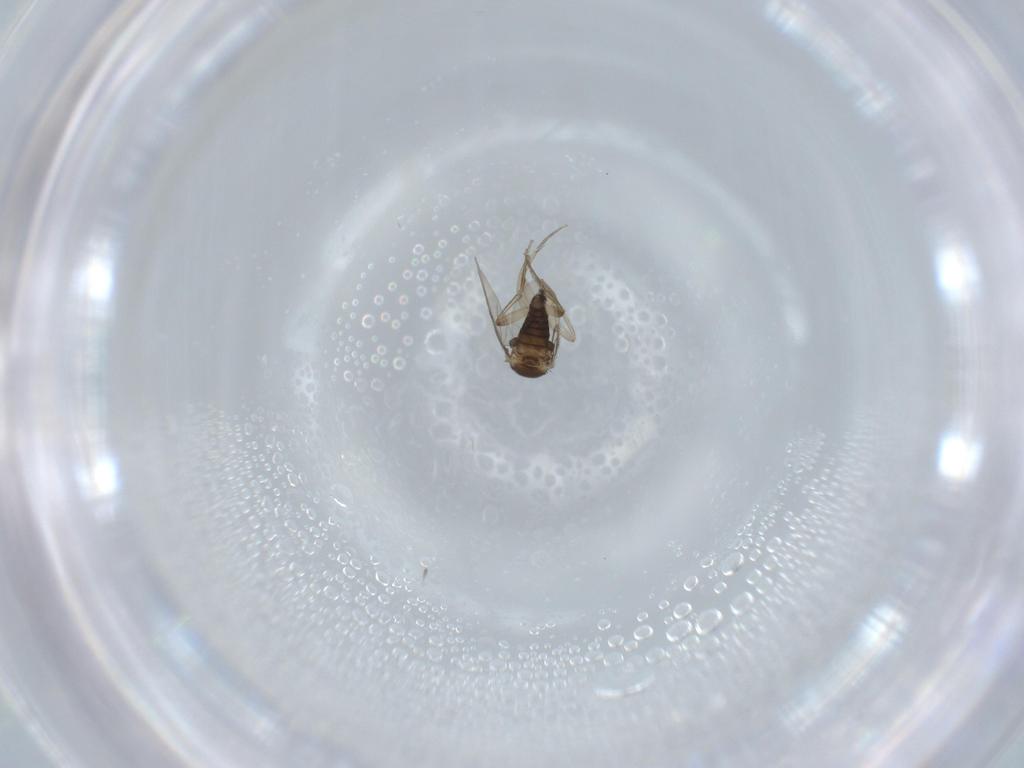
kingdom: Animalia
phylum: Arthropoda
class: Insecta
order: Diptera
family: Phoridae
